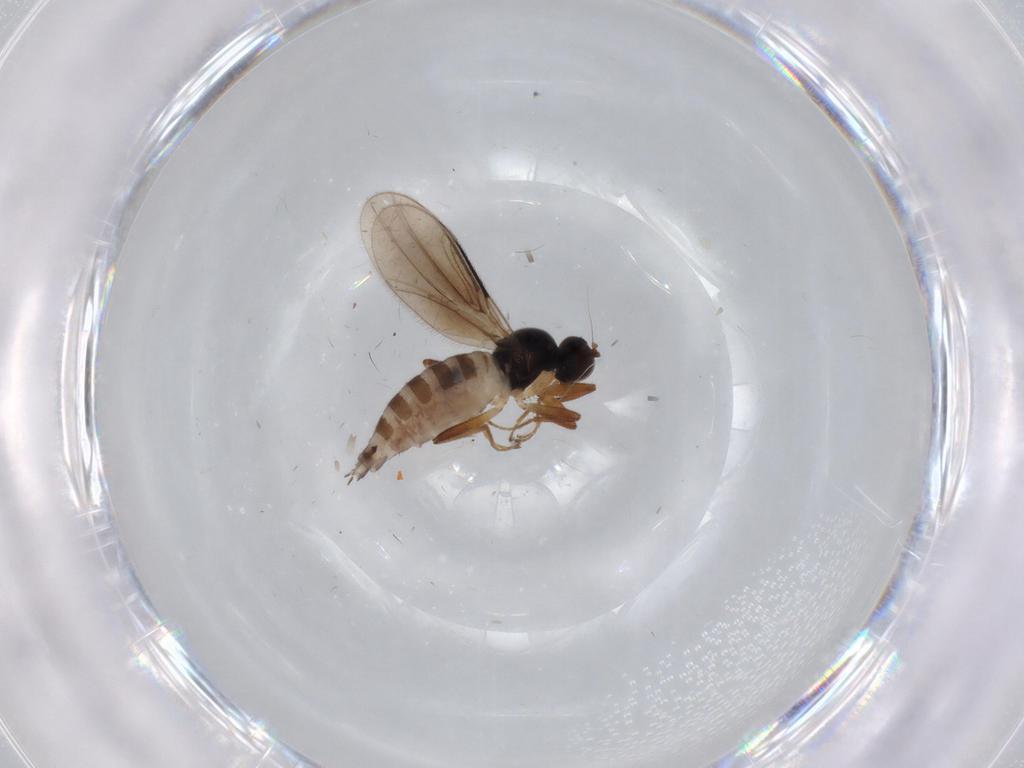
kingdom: Animalia
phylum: Arthropoda
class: Insecta
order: Diptera
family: Hybotidae
